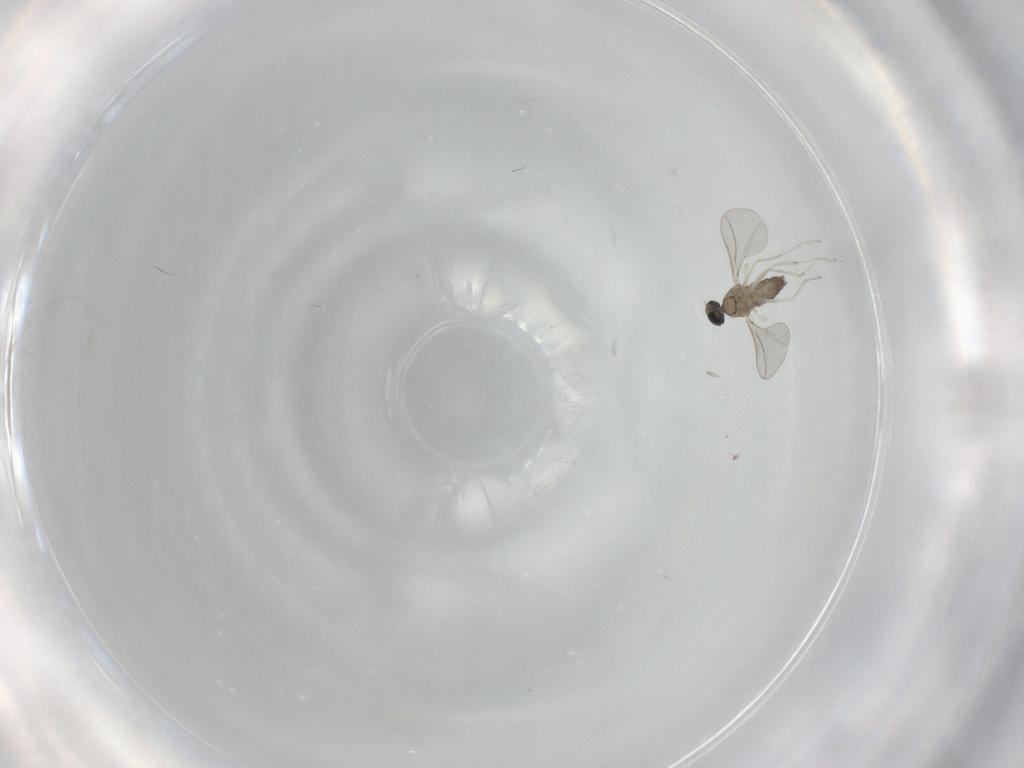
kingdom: Animalia
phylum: Arthropoda
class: Insecta
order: Diptera
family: Cecidomyiidae
